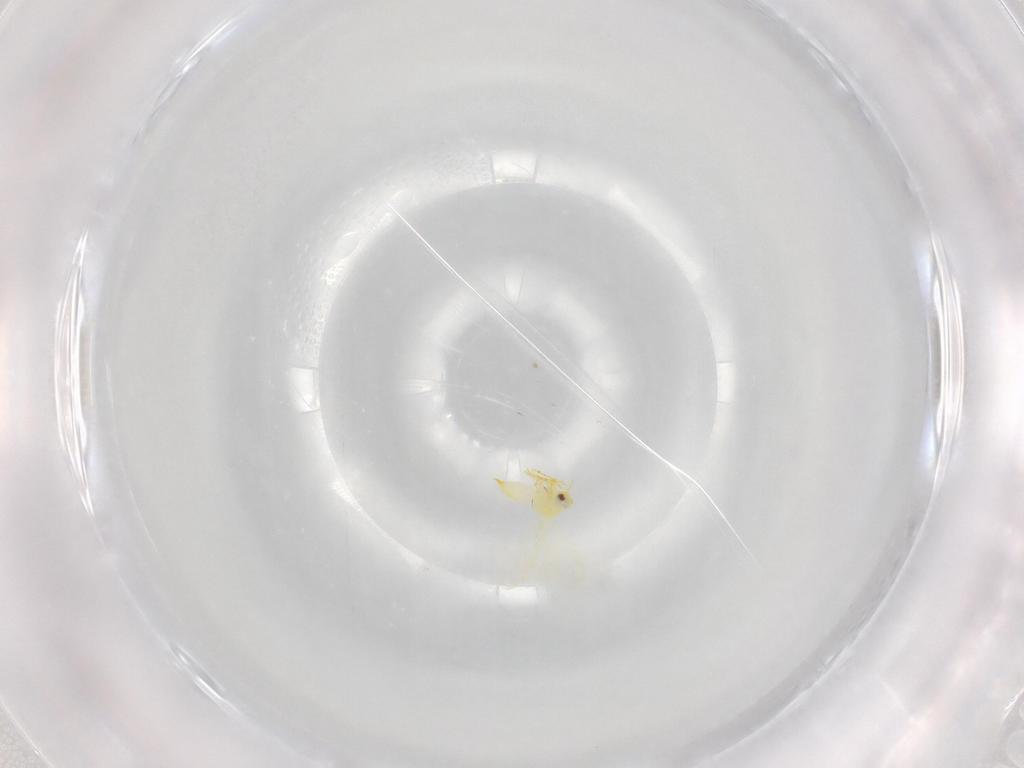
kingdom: Animalia
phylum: Arthropoda
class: Insecta
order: Hemiptera
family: Aleyrodidae
